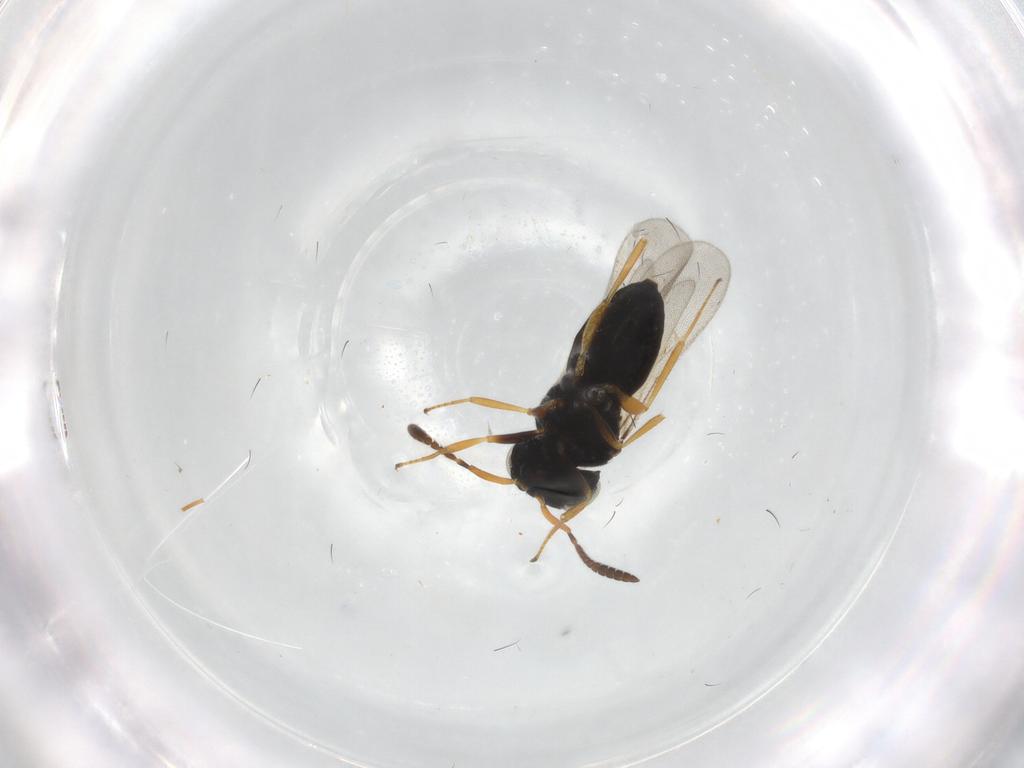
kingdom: Animalia
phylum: Arthropoda
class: Insecta
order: Hymenoptera
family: Scelionidae
